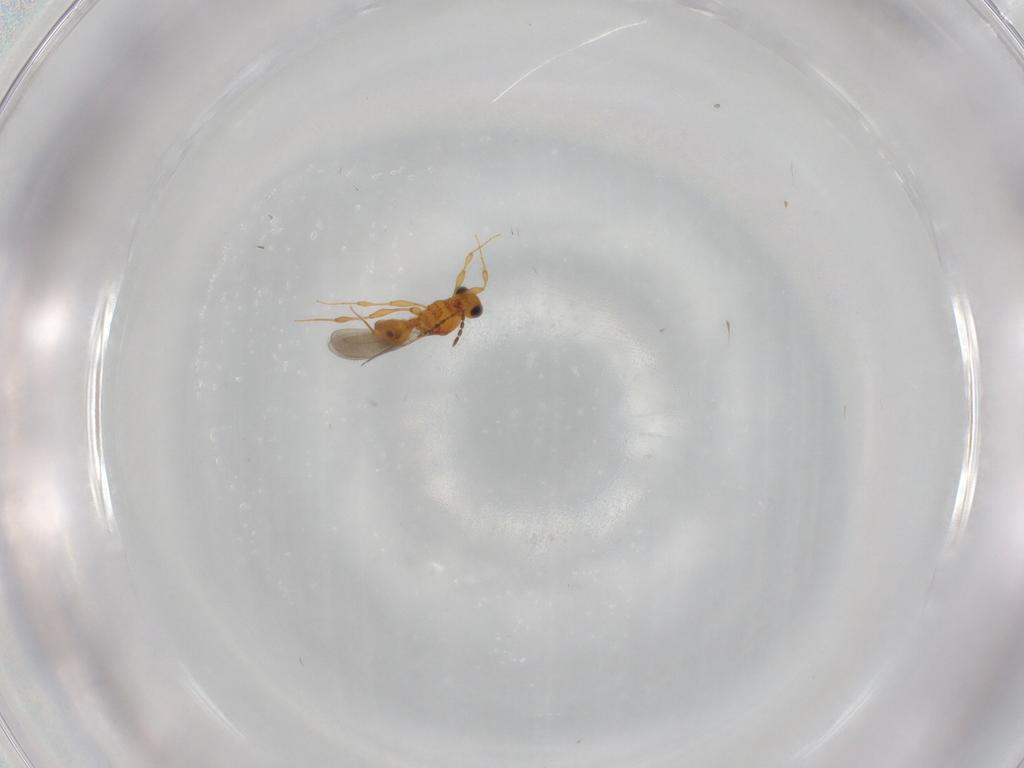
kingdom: Animalia
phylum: Arthropoda
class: Insecta
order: Hymenoptera
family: Platygastridae
